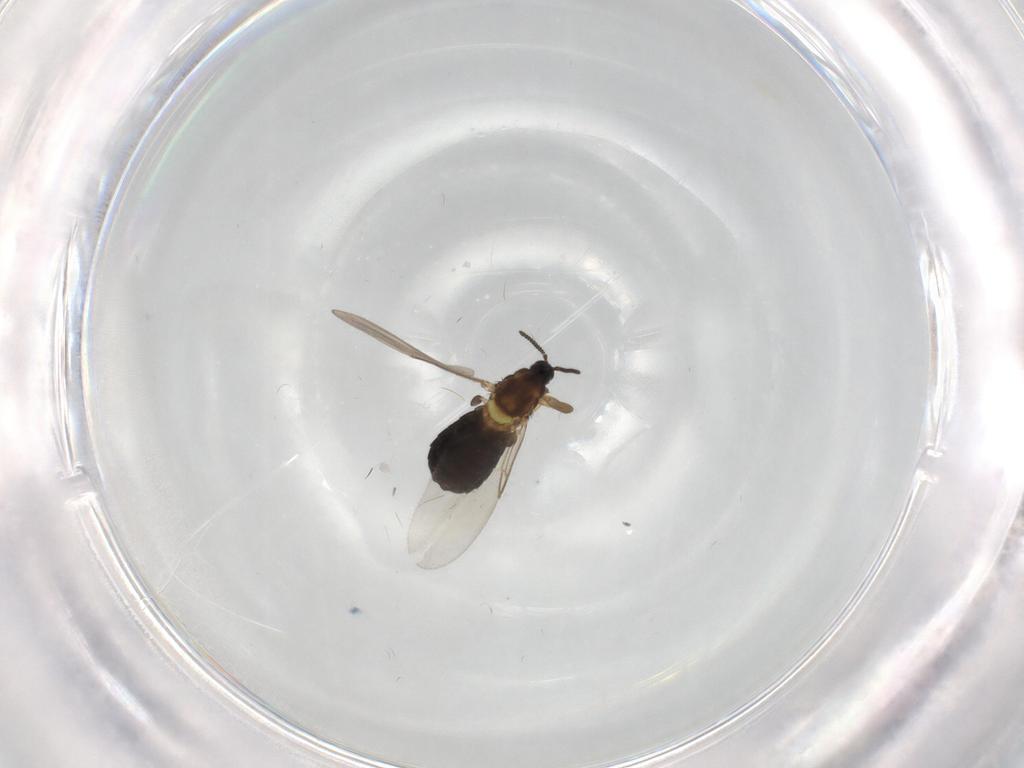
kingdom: Animalia
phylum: Arthropoda
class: Insecta
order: Diptera
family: Scatopsidae
